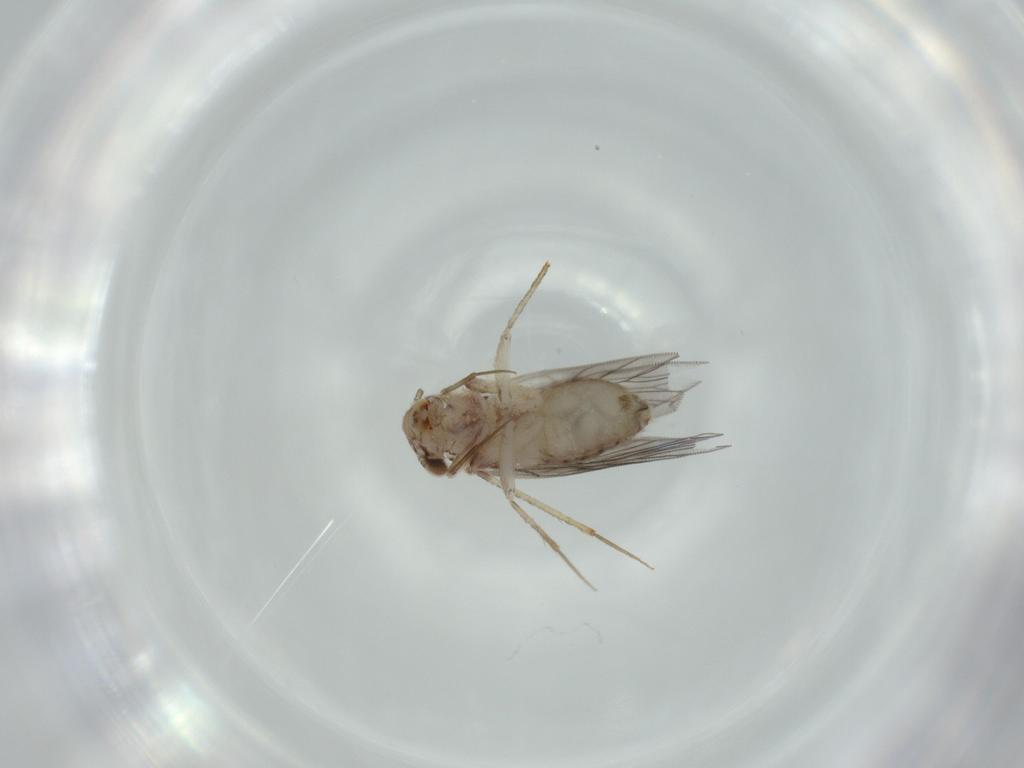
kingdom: Animalia
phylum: Arthropoda
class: Insecta
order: Psocodea
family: Lepidopsocidae
